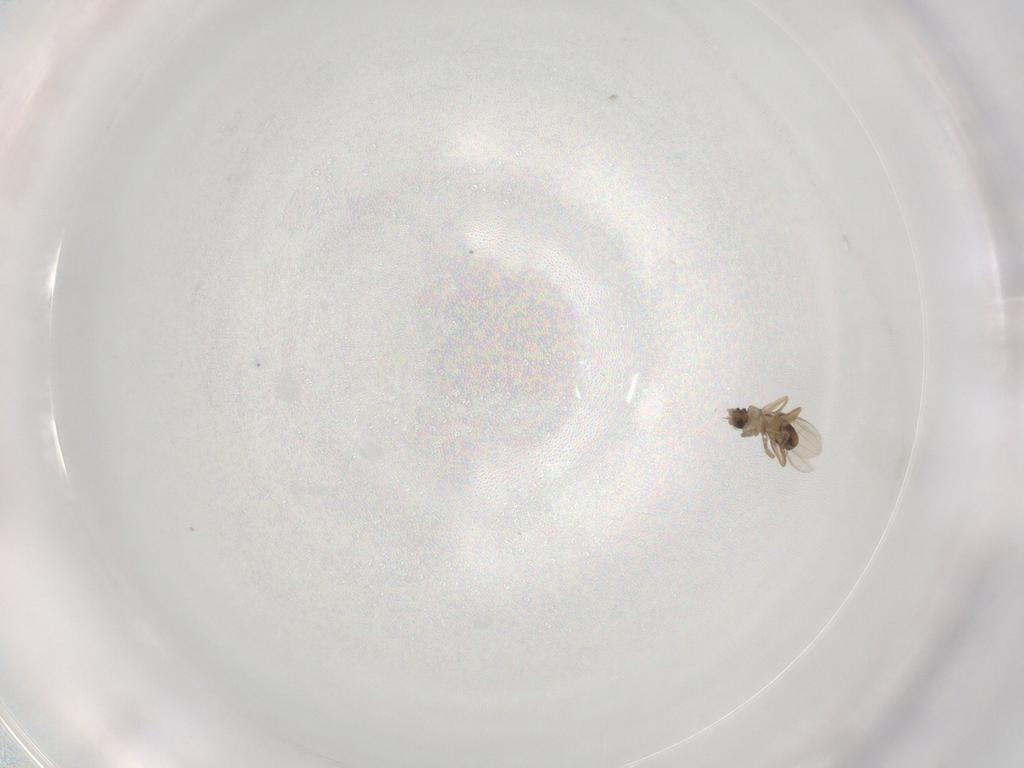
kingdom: Animalia
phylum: Arthropoda
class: Insecta
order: Diptera
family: Phoridae
